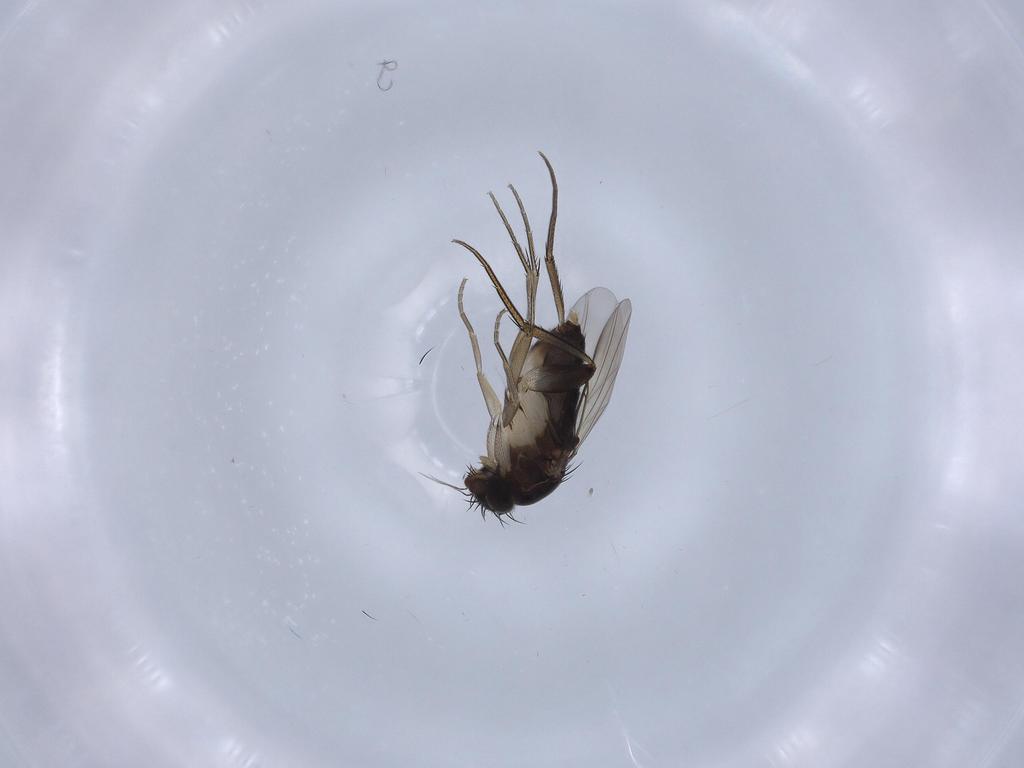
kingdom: Animalia
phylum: Arthropoda
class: Insecta
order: Diptera
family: Phoridae
